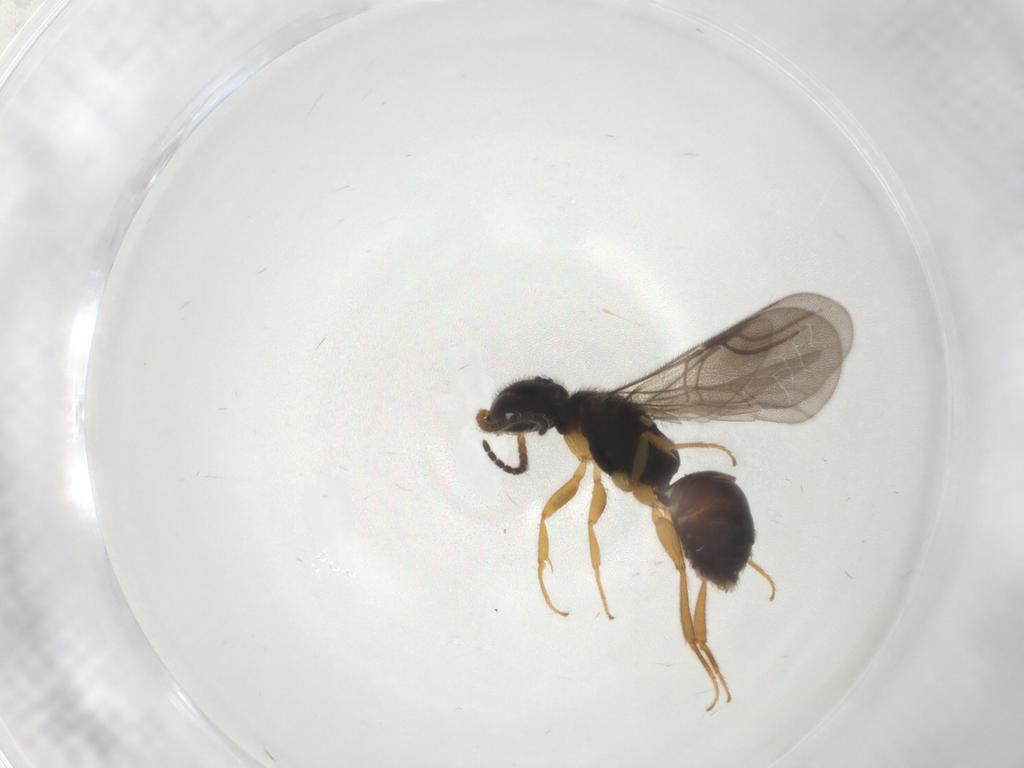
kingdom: Animalia
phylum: Arthropoda
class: Insecta
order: Hymenoptera
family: Bethylidae
